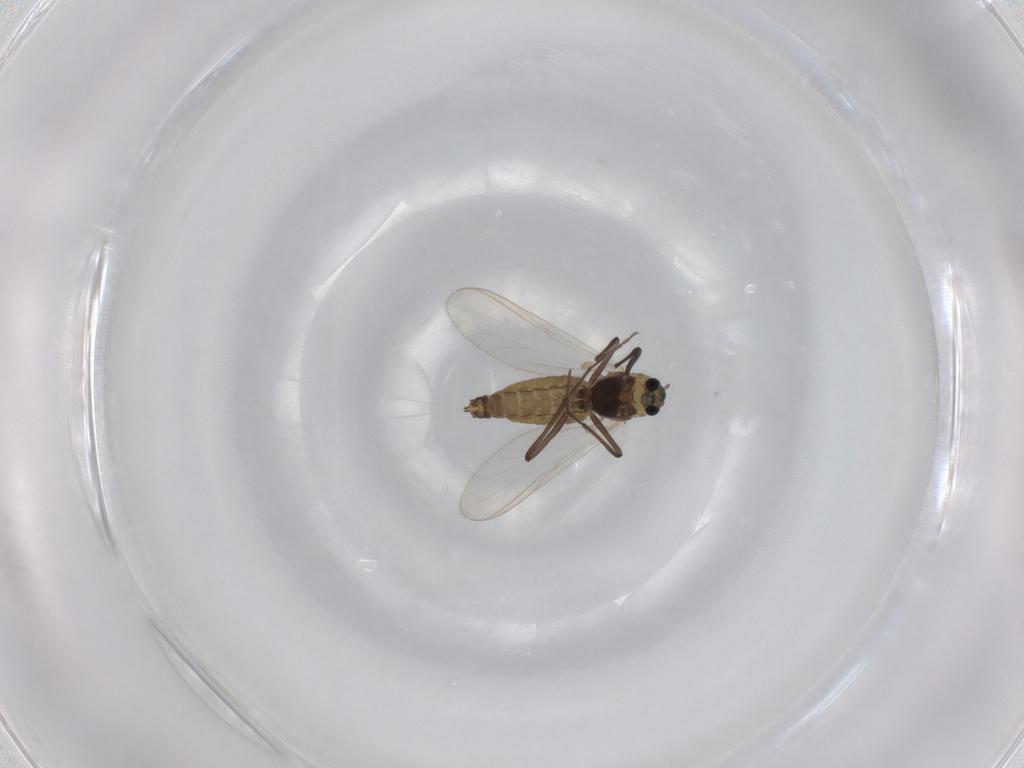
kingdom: Animalia
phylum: Arthropoda
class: Insecta
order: Diptera
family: Chironomidae
